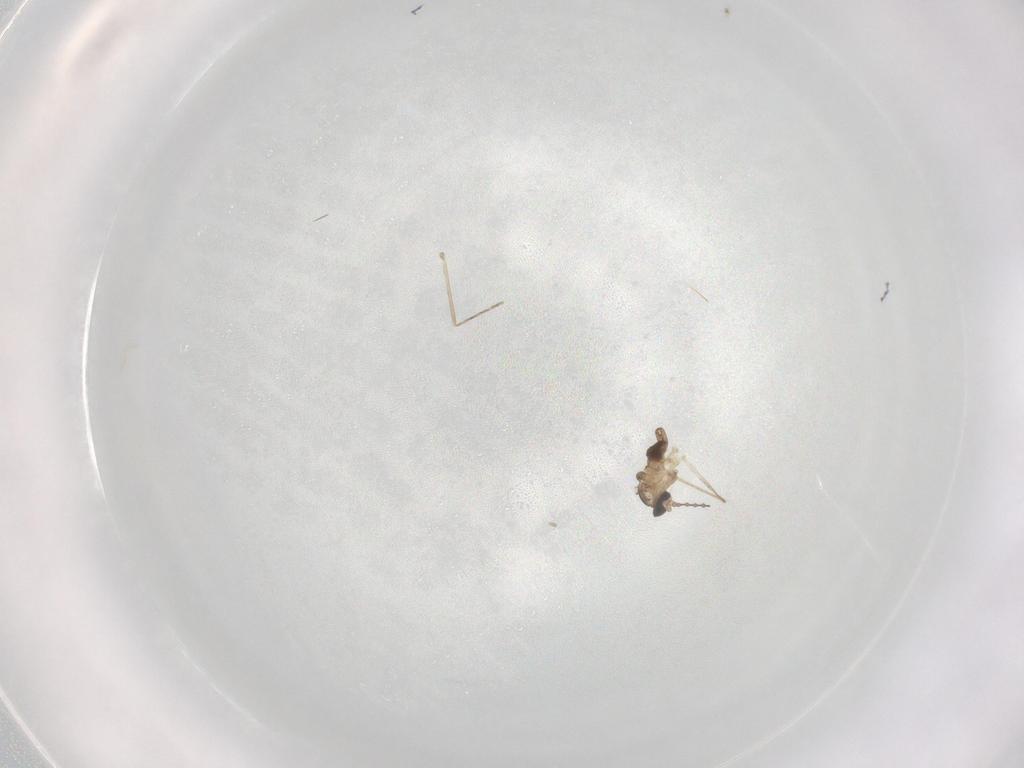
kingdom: Animalia
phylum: Arthropoda
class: Insecta
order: Diptera
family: Cecidomyiidae
